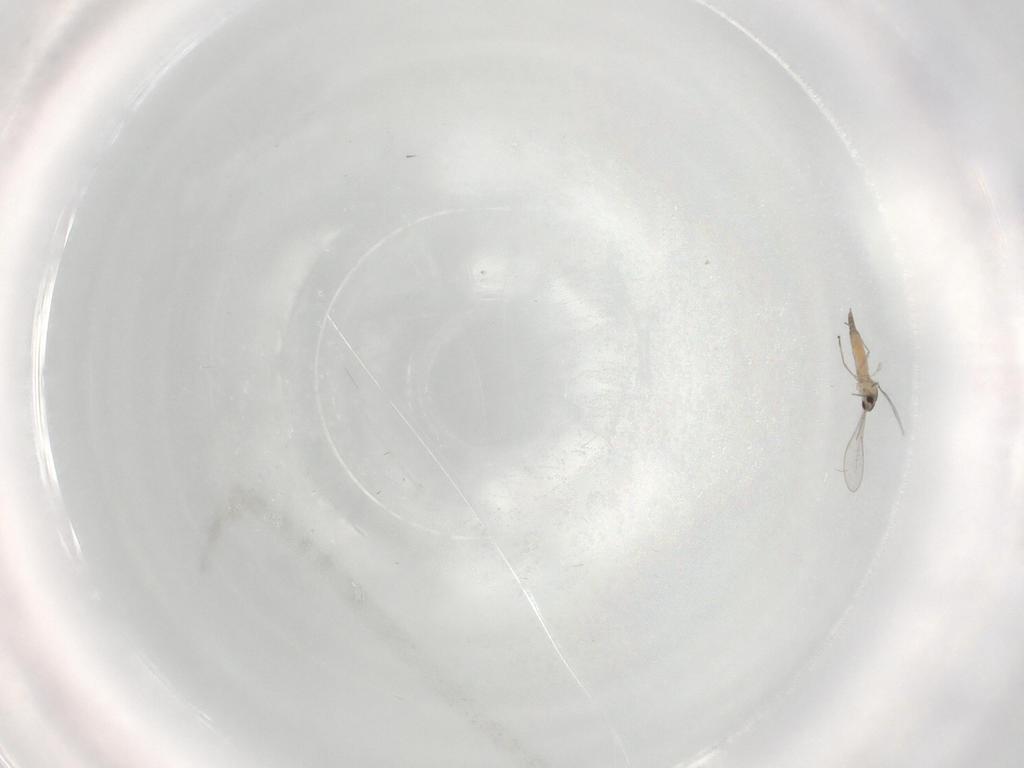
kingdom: Animalia
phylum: Arthropoda
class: Insecta
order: Diptera
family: Cecidomyiidae
